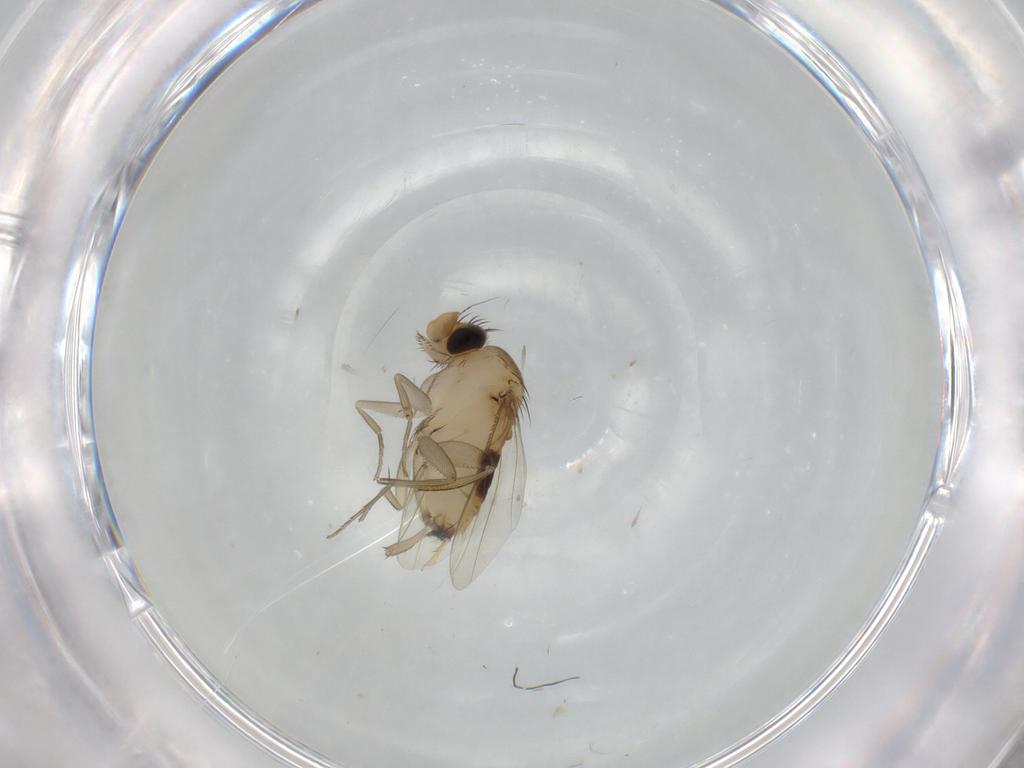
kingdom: Animalia
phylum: Arthropoda
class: Insecta
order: Diptera
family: Phoridae
